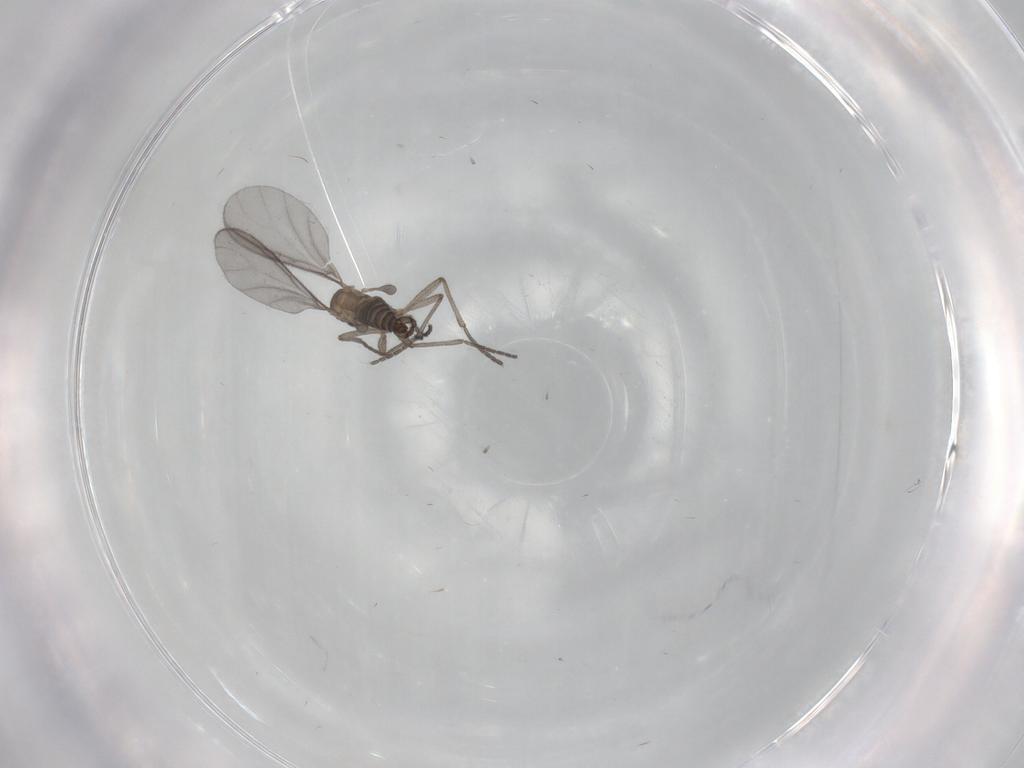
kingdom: Animalia
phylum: Arthropoda
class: Insecta
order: Diptera
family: Sciaridae
